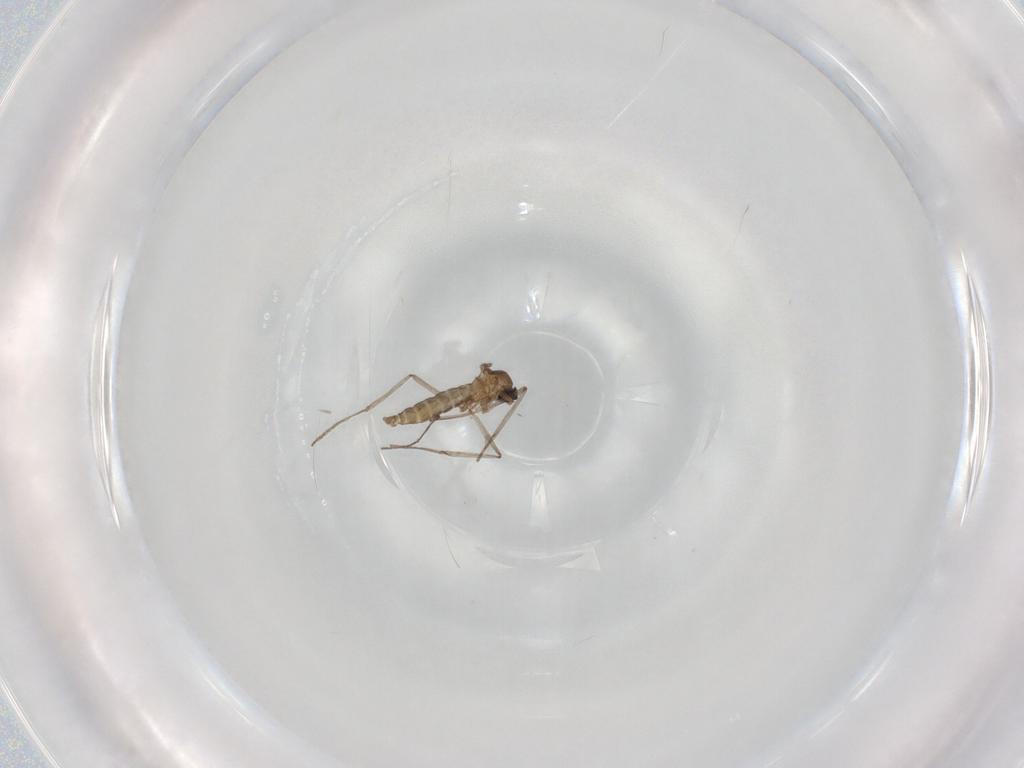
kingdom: Animalia
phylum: Arthropoda
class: Insecta
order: Diptera
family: Cecidomyiidae
